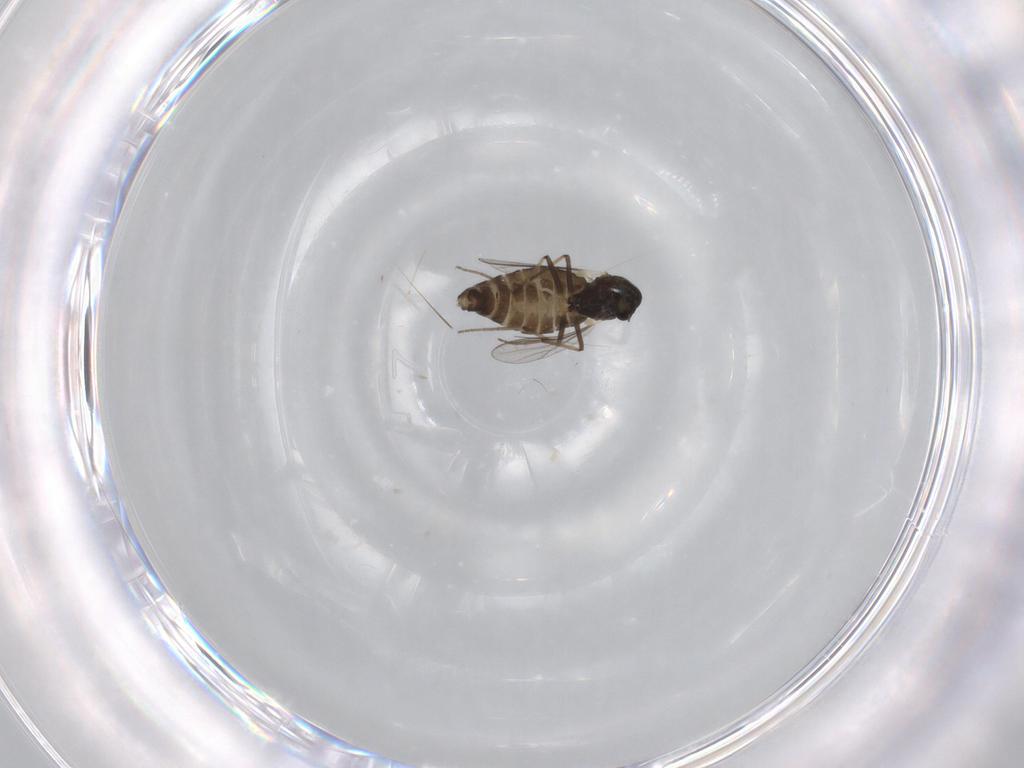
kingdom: Animalia
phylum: Arthropoda
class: Insecta
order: Diptera
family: Chironomidae
